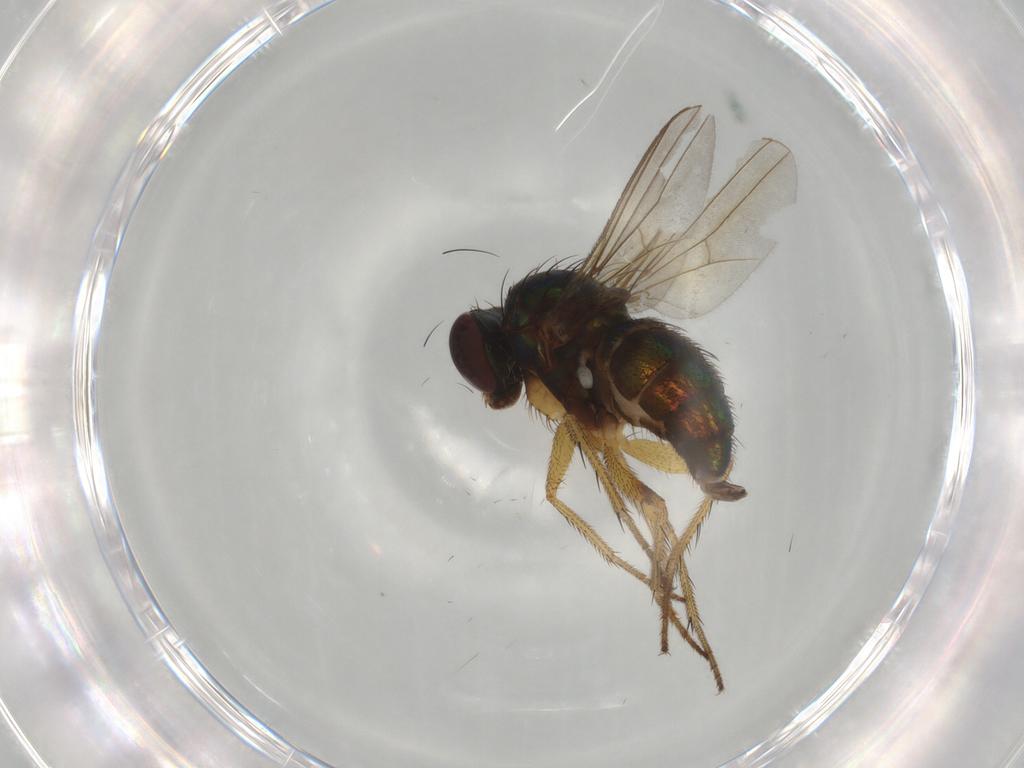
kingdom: Animalia
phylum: Arthropoda
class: Insecta
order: Diptera
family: Dolichopodidae
